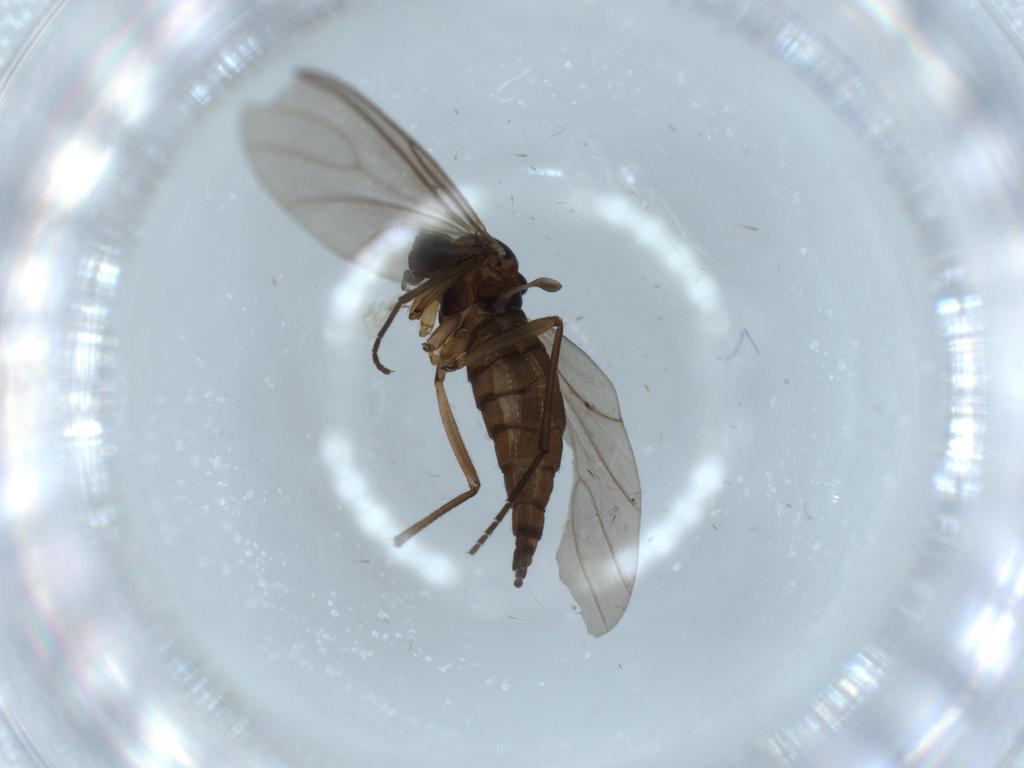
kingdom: Animalia
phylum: Arthropoda
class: Insecta
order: Diptera
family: Sciaridae
